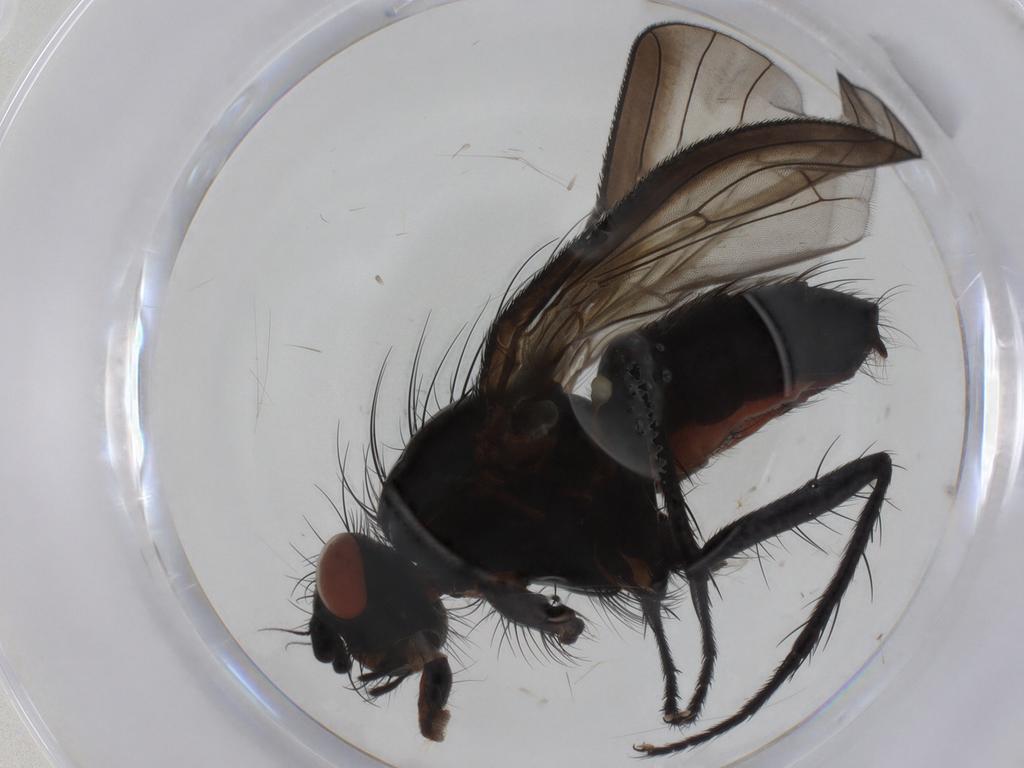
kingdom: Animalia
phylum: Arthropoda
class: Insecta
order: Diptera
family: Anthomyiidae
